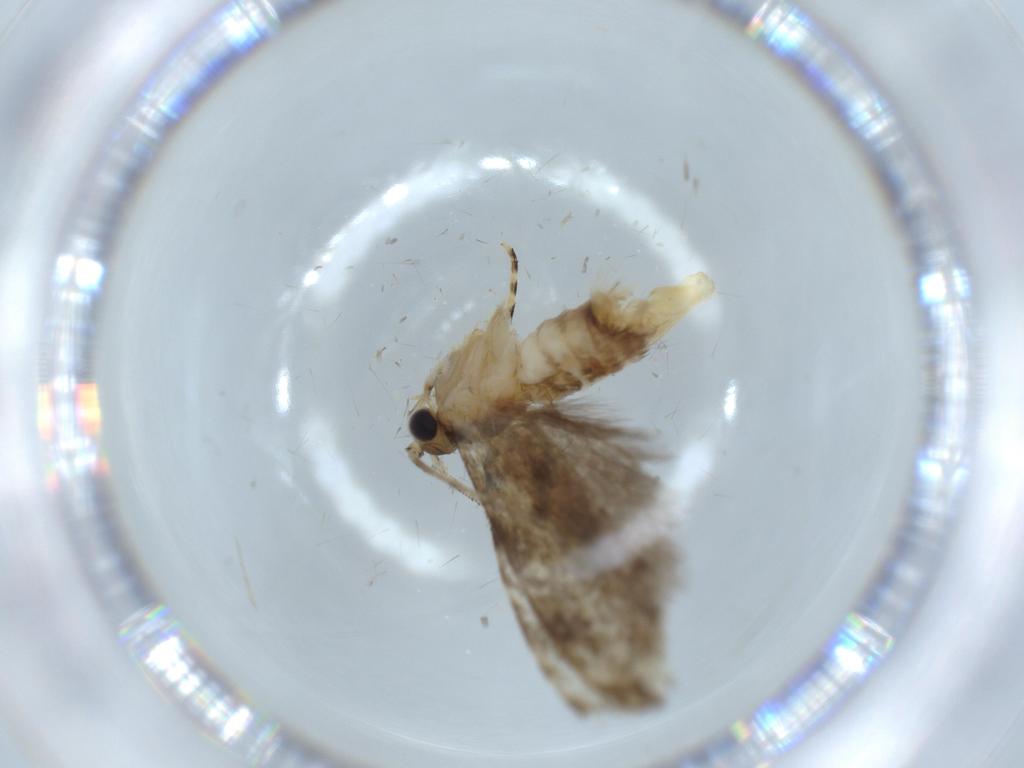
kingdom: Animalia
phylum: Arthropoda
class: Insecta
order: Lepidoptera
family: Tineidae
